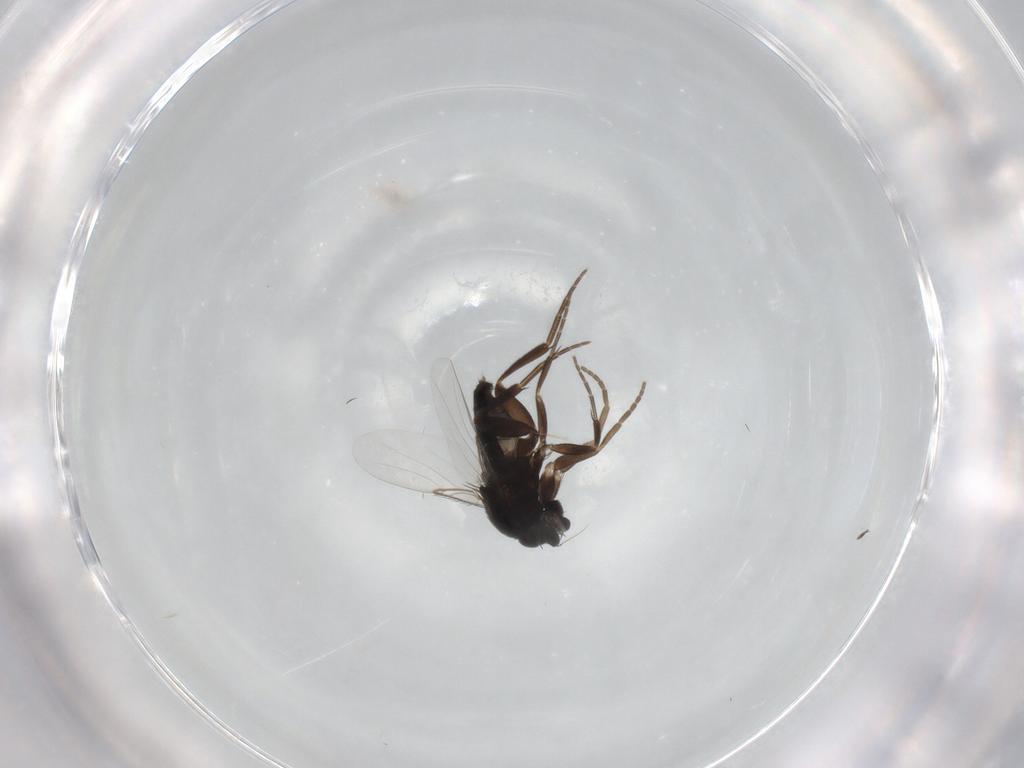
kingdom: Animalia
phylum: Arthropoda
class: Insecta
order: Diptera
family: Phoridae
